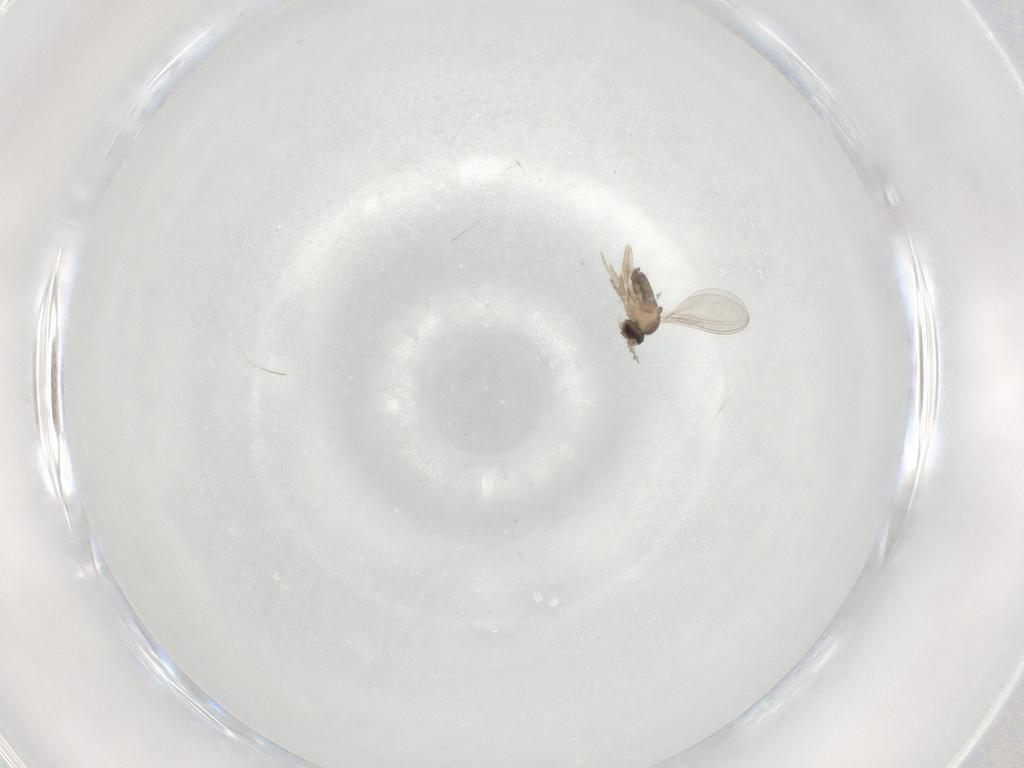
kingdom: Animalia
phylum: Arthropoda
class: Insecta
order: Diptera
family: Cecidomyiidae
